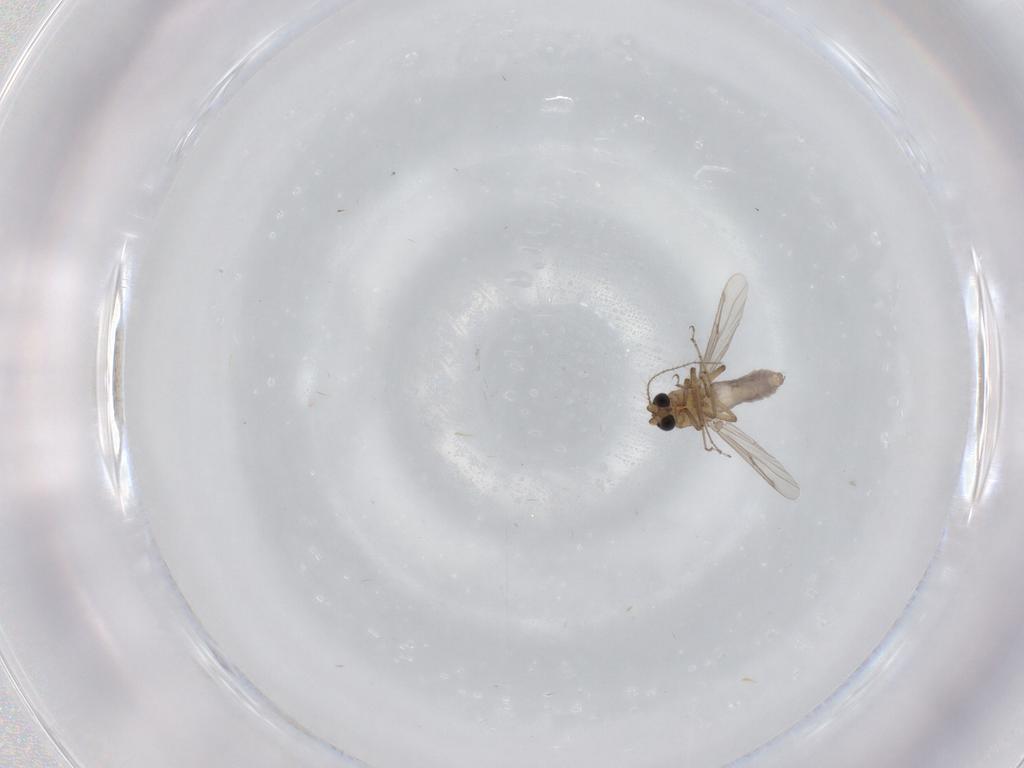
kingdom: Animalia
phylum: Arthropoda
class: Insecta
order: Diptera
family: Ceratopogonidae
